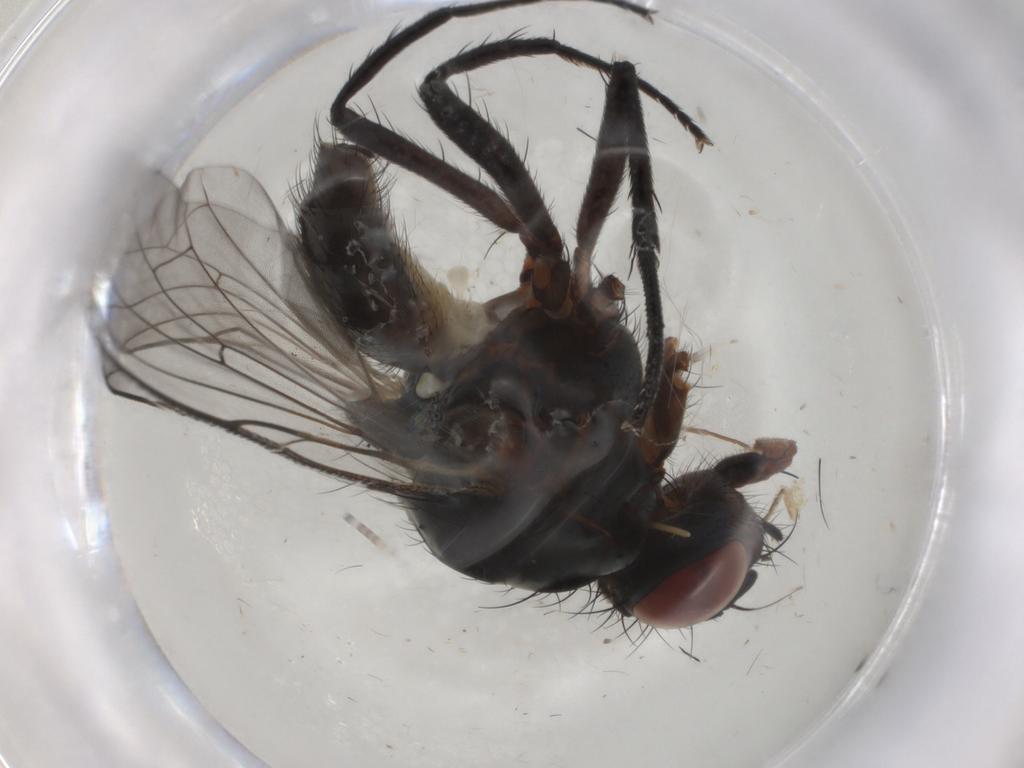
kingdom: Animalia
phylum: Arthropoda
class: Insecta
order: Diptera
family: Anthomyiidae
